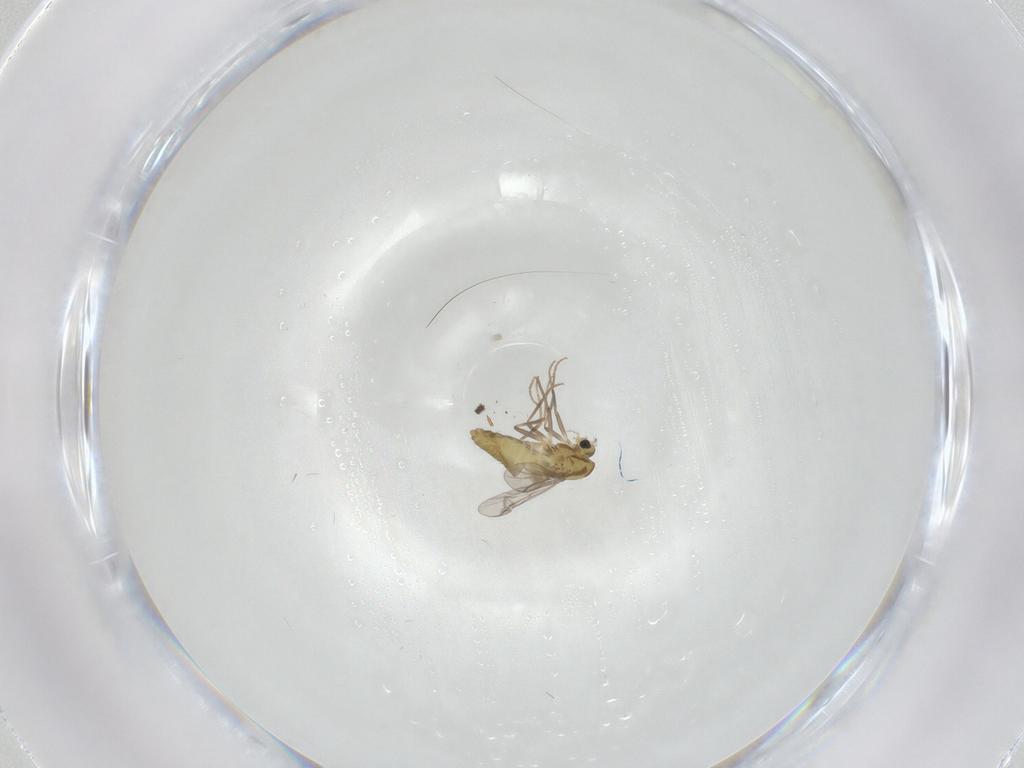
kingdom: Animalia
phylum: Arthropoda
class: Insecta
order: Diptera
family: Chironomidae
